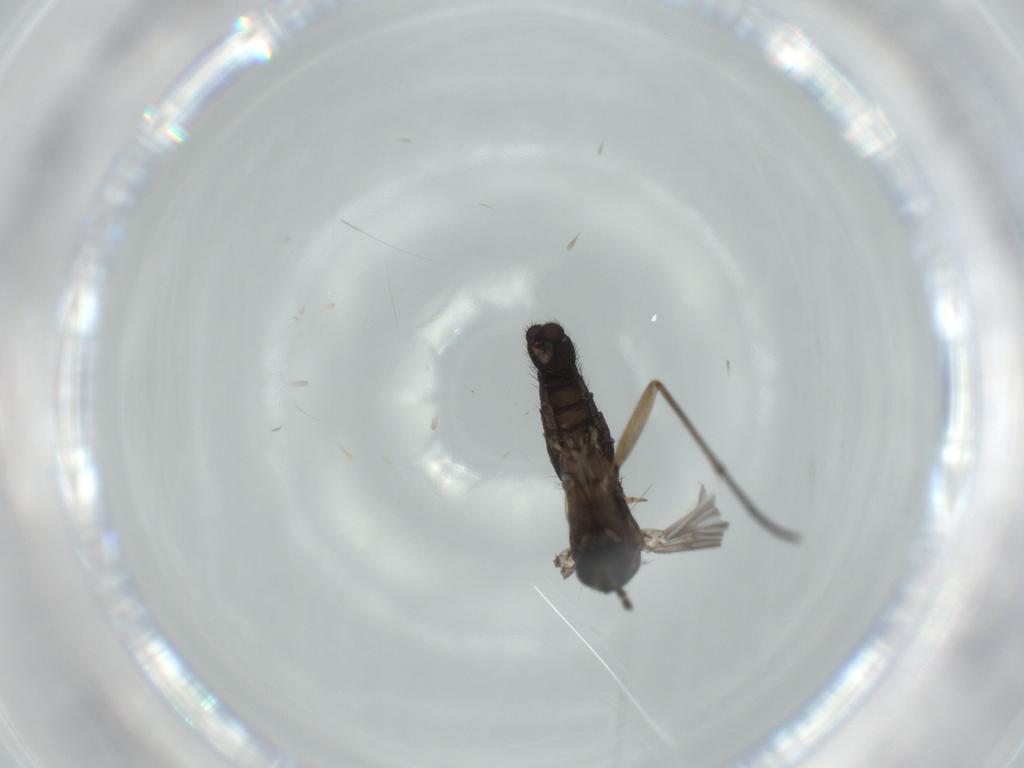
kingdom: Animalia
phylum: Arthropoda
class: Insecta
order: Diptera
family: Sciaridae
